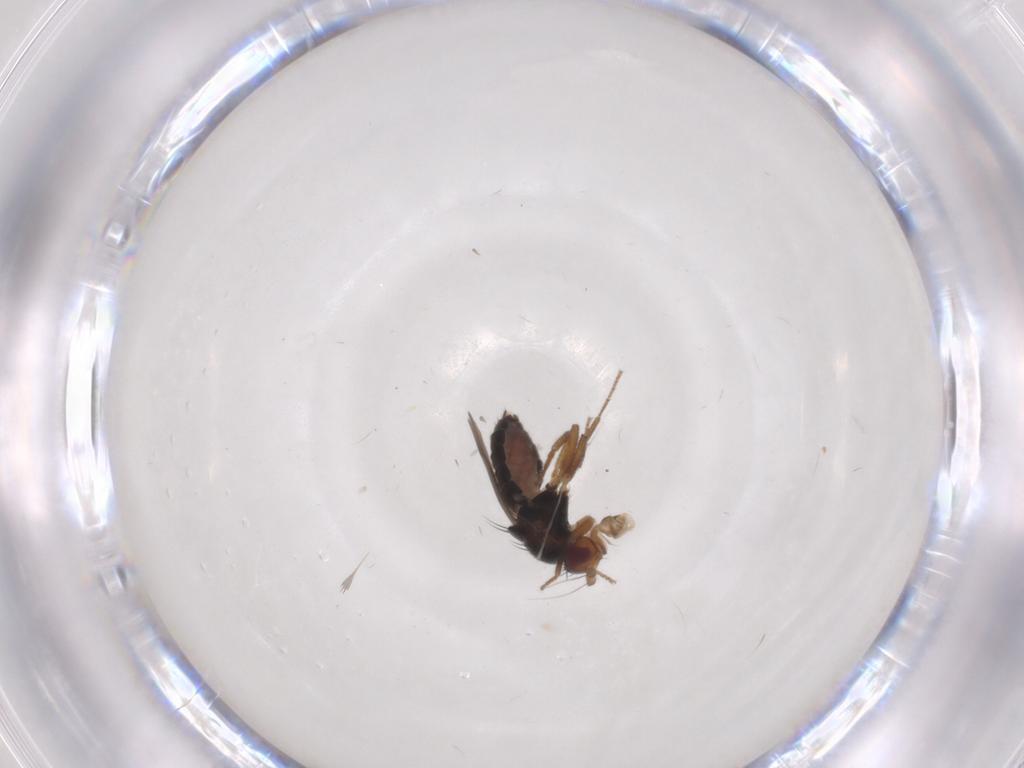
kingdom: Animalia
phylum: Arthropoda
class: Insecta
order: Diptera
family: Sphaeroceridae
